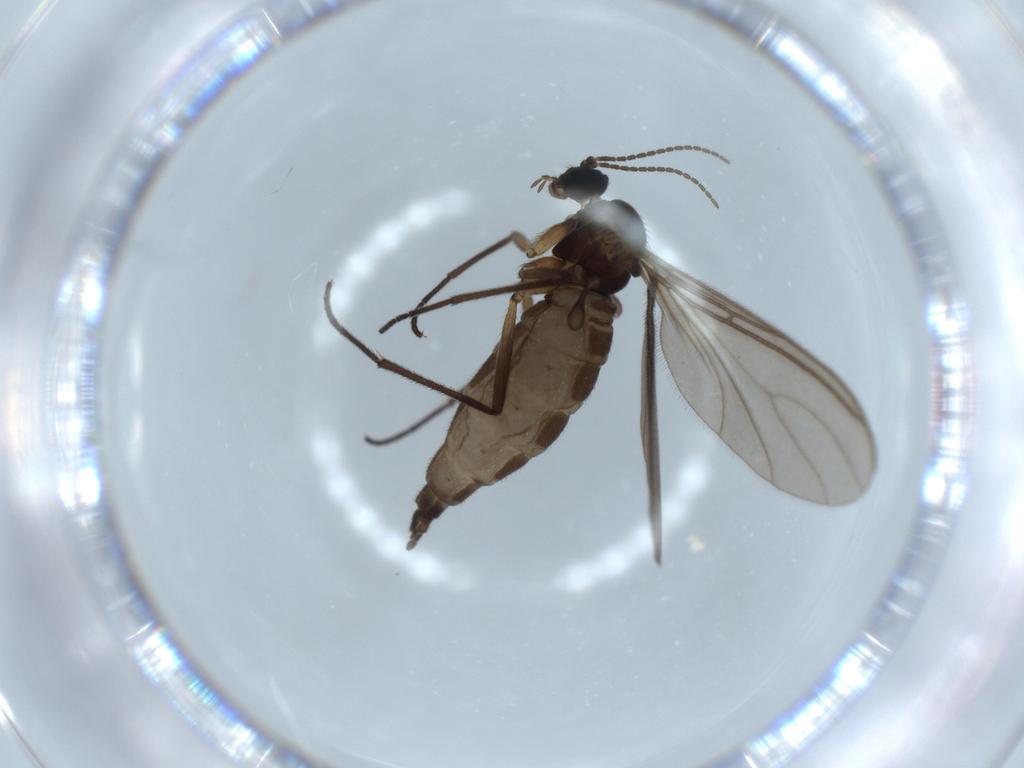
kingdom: Animalia
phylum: Arthropoda
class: Insecta
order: Diptera
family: Cecidomyiidae
